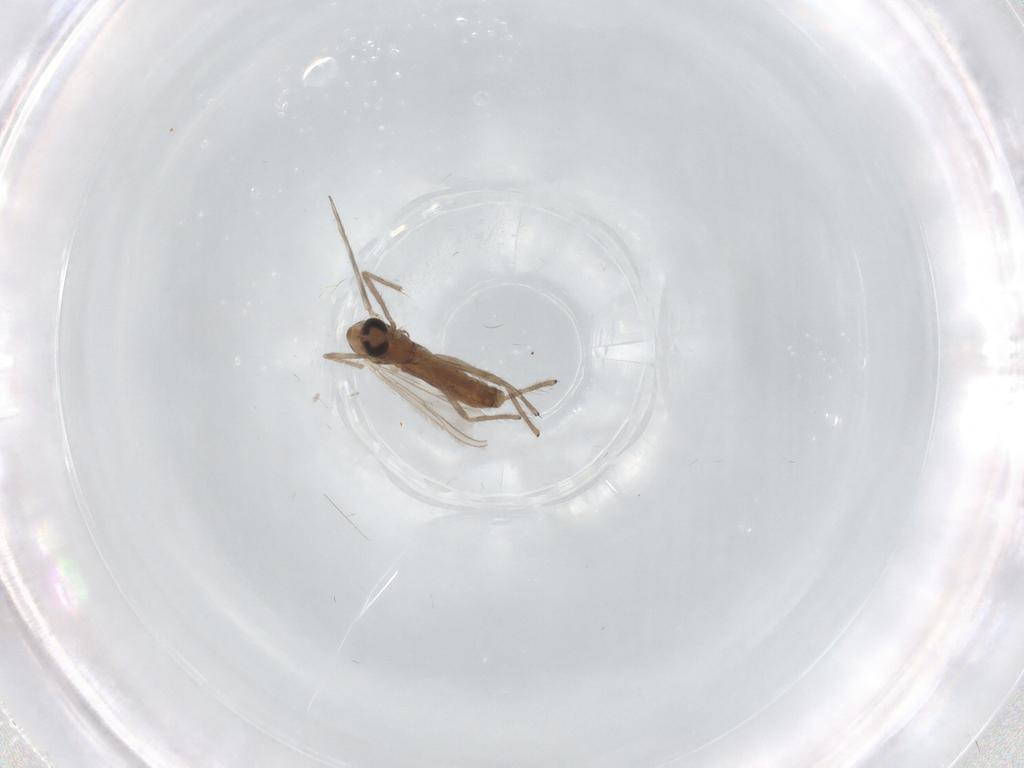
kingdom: Animalia
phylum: Arthropoda
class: Insecta
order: Diptera
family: Chironomidae
